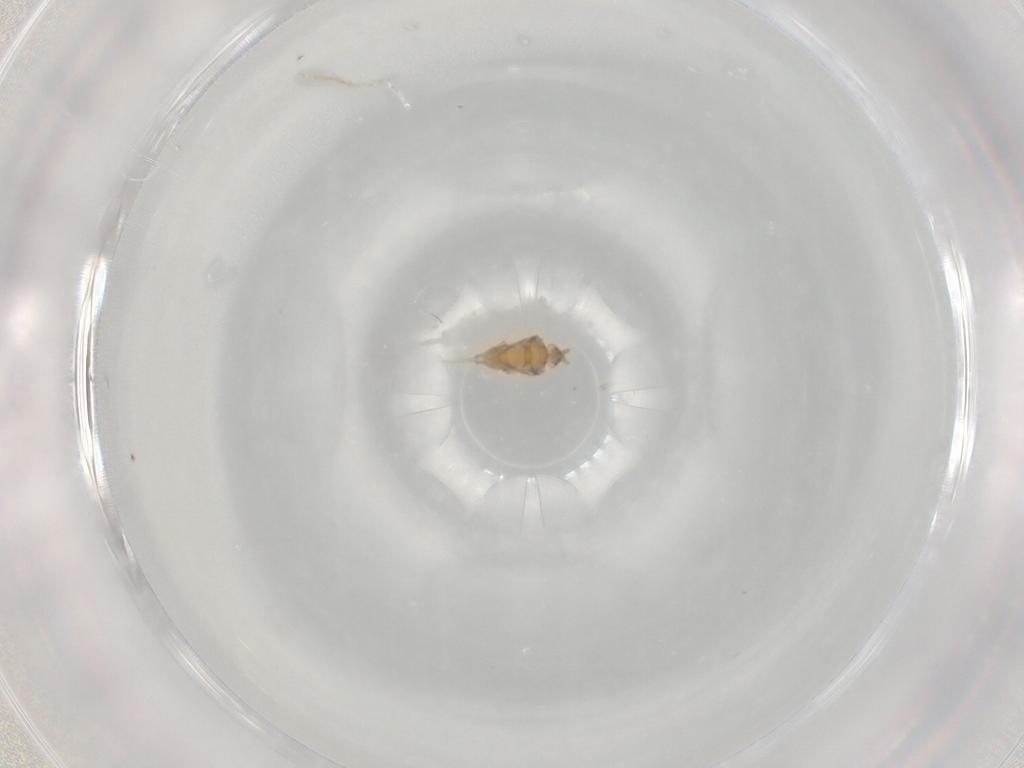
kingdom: Animalia
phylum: Arthropoda
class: Insecta
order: Hemiptera
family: Coccidae
